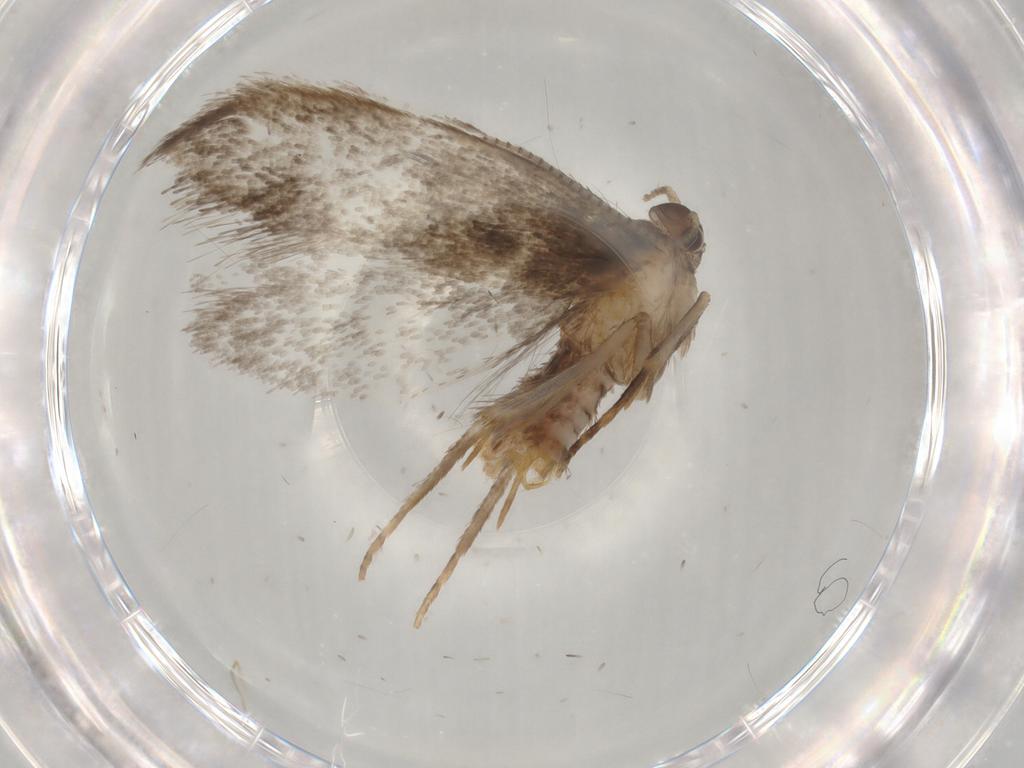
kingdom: Animalia
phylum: Arthropoda
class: Insecta
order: Lepidoptera
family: Dryadaulidae
